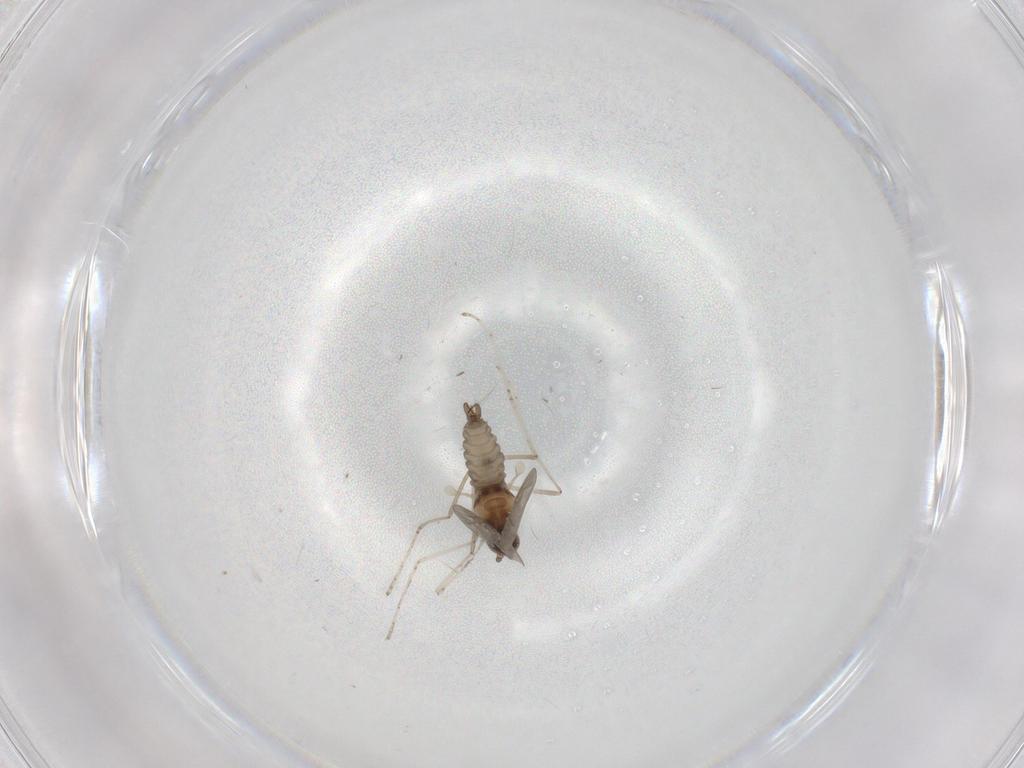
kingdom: Animalia
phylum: Arthropoda
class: Insecta
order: Diptera
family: Cecidomyiidae
